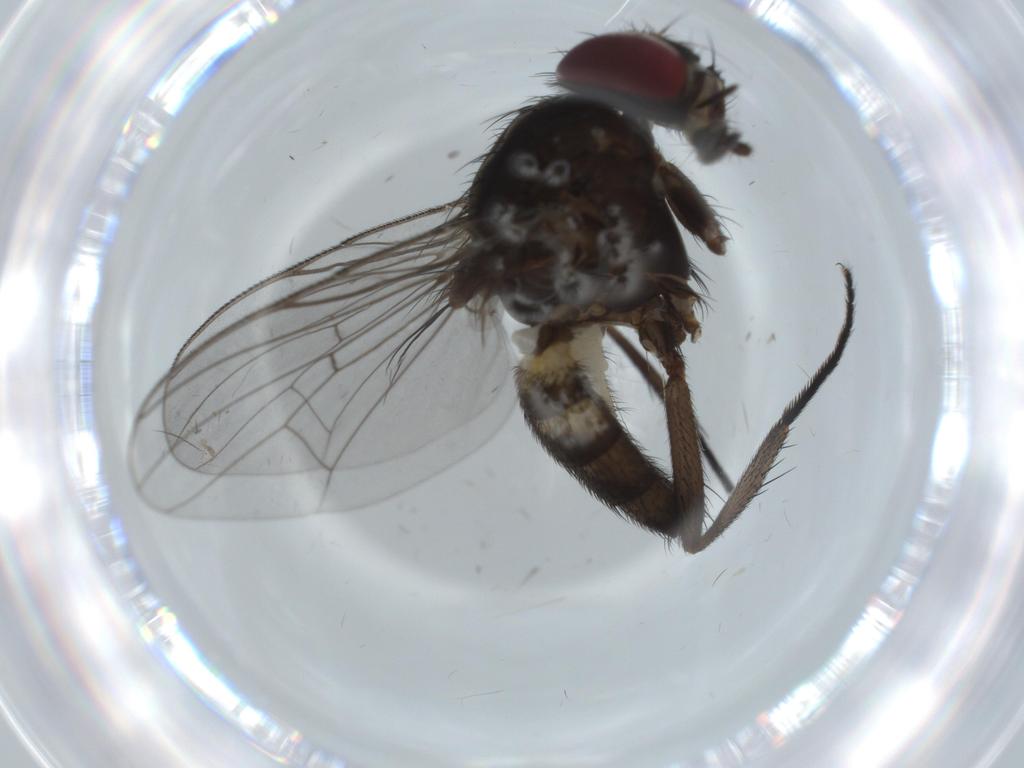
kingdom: Animalia
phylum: Arthropoda
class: Insecta
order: Diptera
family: Fannia
